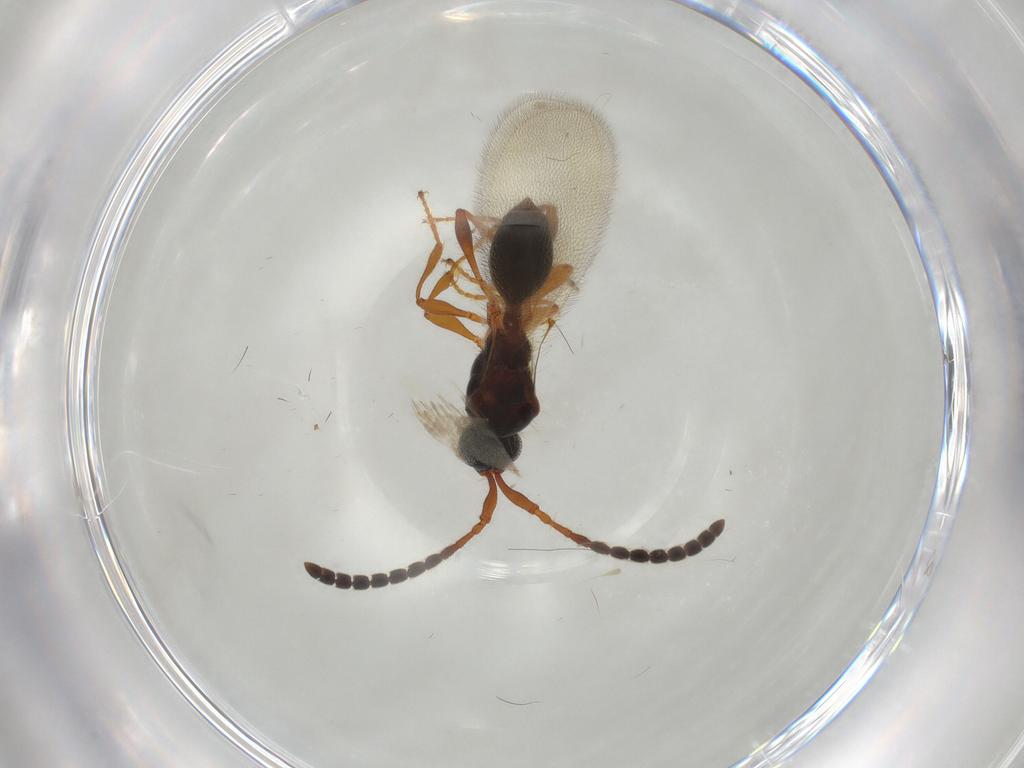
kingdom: Animalia
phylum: Arthropoda
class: Insecta
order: Hymenoptera
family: Diapriidae
